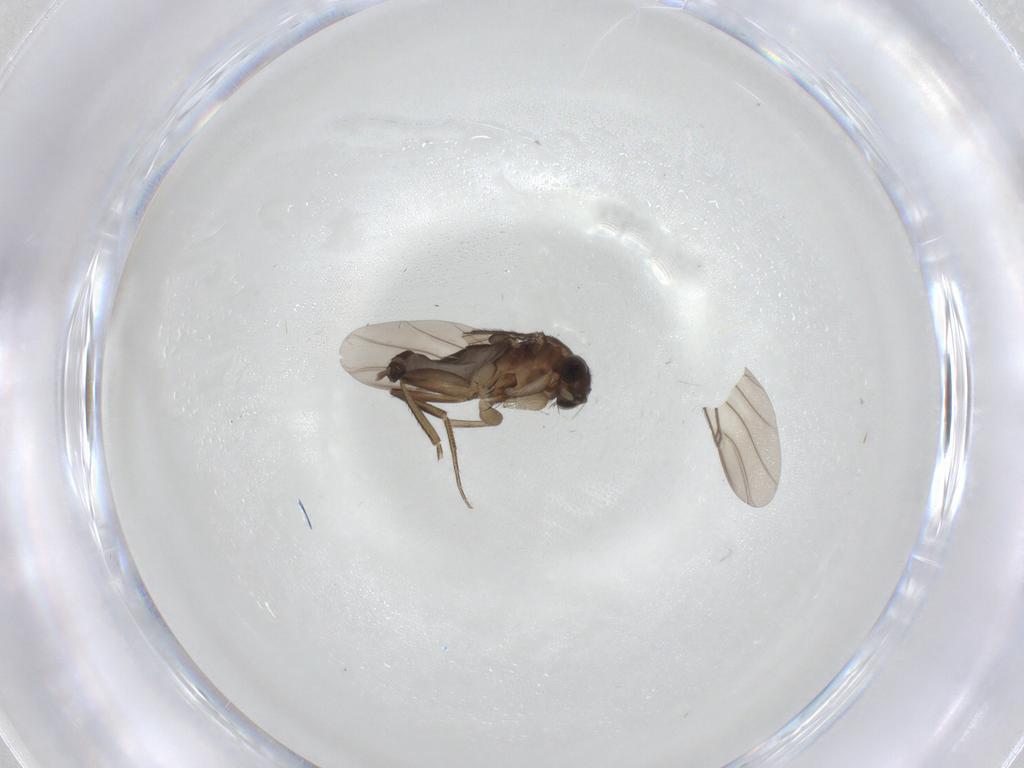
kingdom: Animalia
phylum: Arthropoda
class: Insecta
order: Diptera
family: Phoridae
